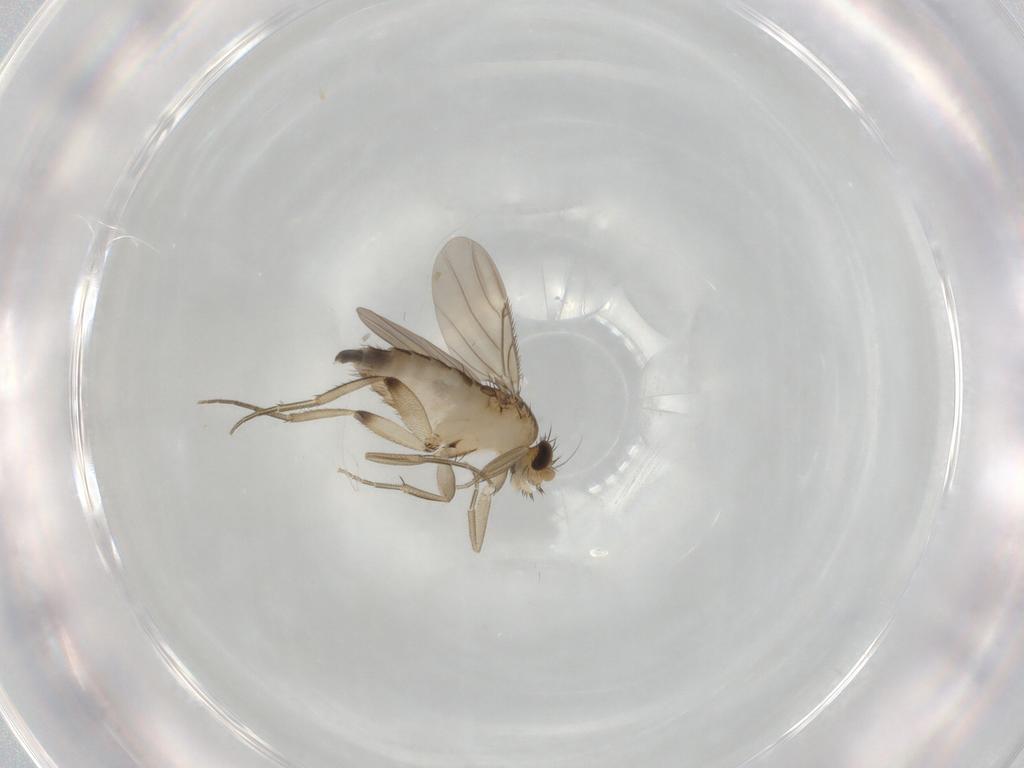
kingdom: Animalia
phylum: Arthropoda
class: Insecta
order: Diptera
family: Phoridae
